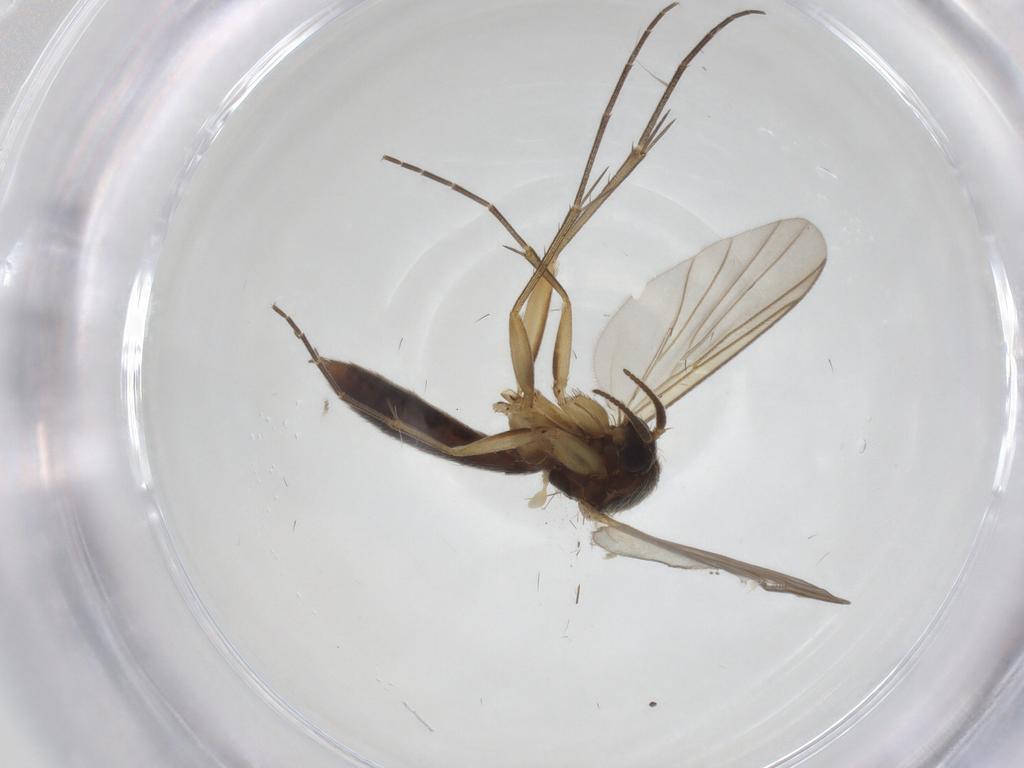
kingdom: Animalia
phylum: Arthropoda
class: Insecta
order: Diptera
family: Mycetophilidae
